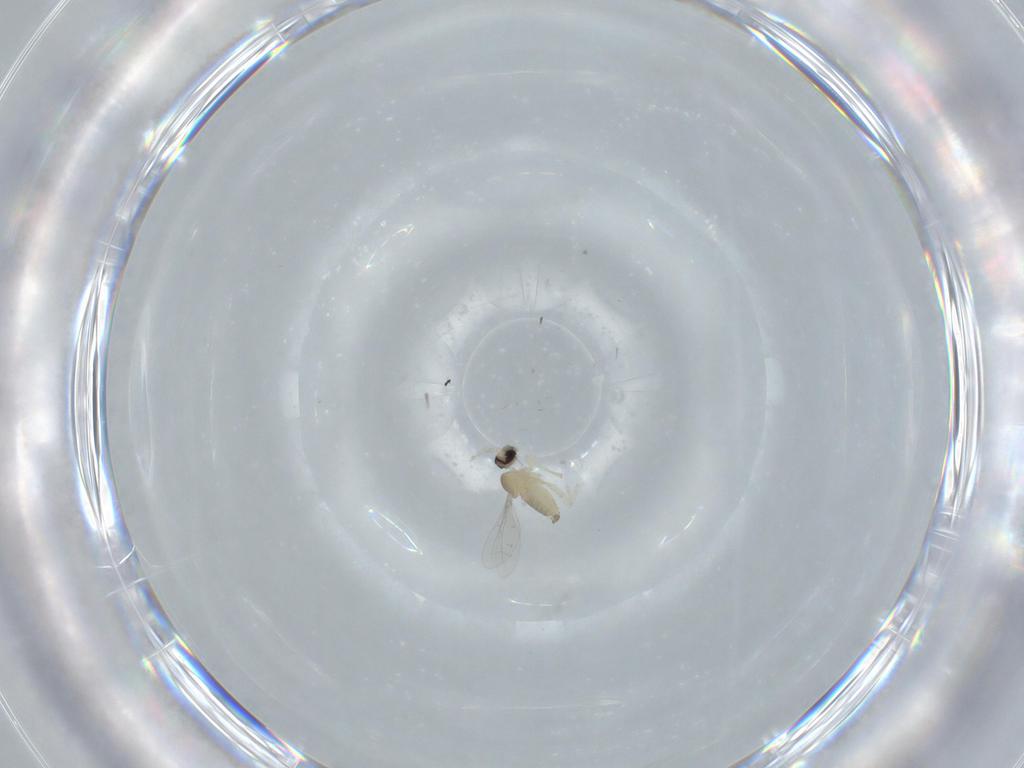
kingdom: Animalia
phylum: Arthropoda
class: Insecta
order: Diptera
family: Cecidomyiidae
